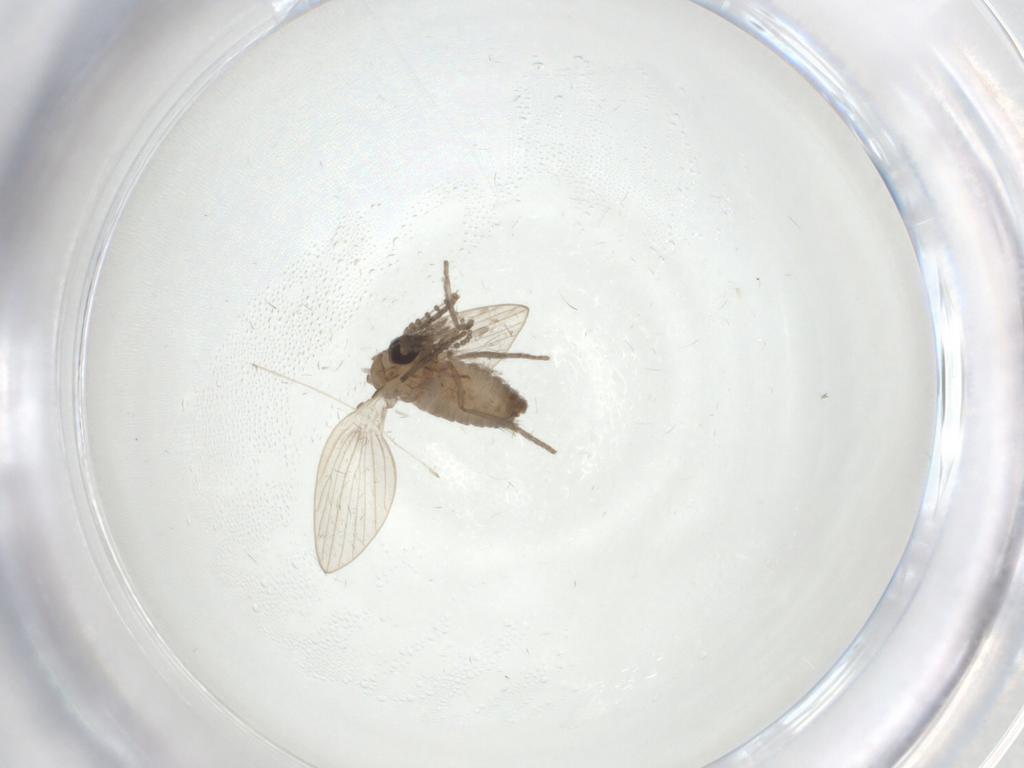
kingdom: Animalia
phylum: Arthropoda
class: Insecta
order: Diptera
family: Psychodidae
